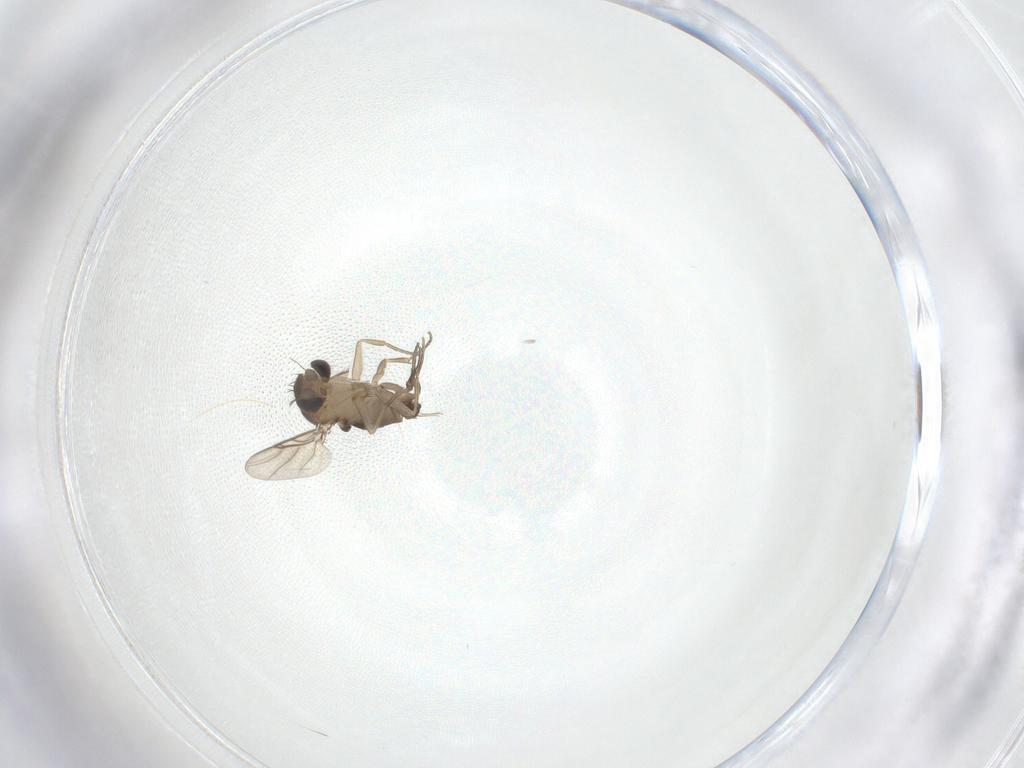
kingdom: Animalia
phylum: Arthropoda
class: Insecta
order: Diptera
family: Phoridae
